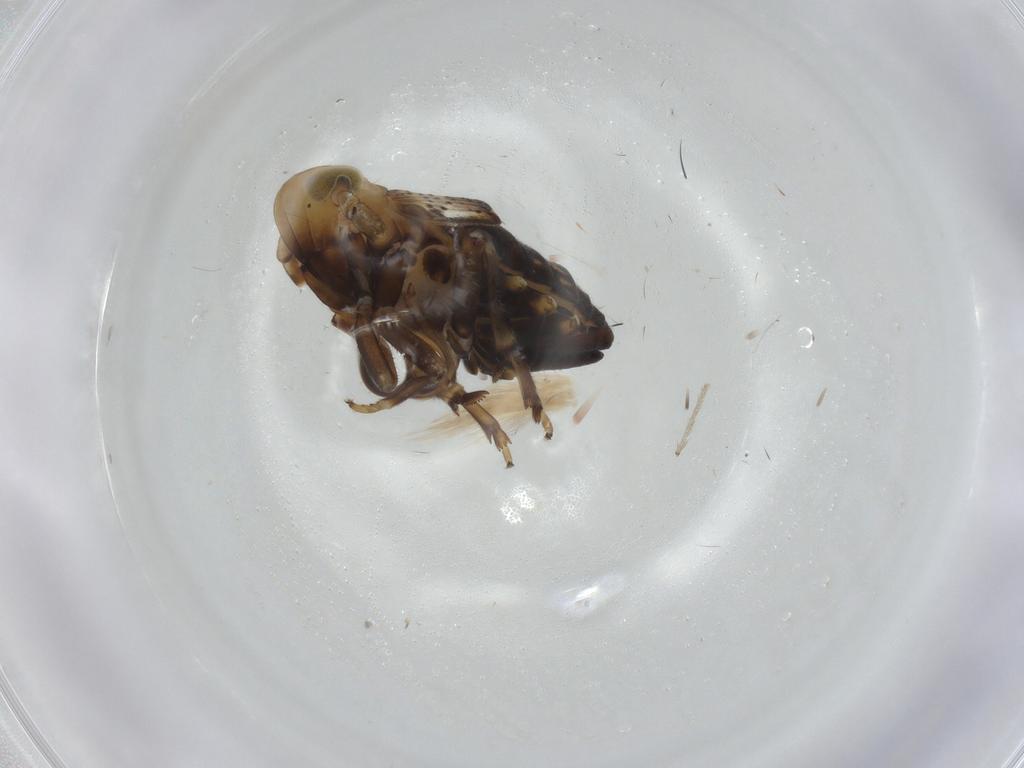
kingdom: Animalia
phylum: Arthropoda
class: Insecta
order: Hemiptera
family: Delphacidae
